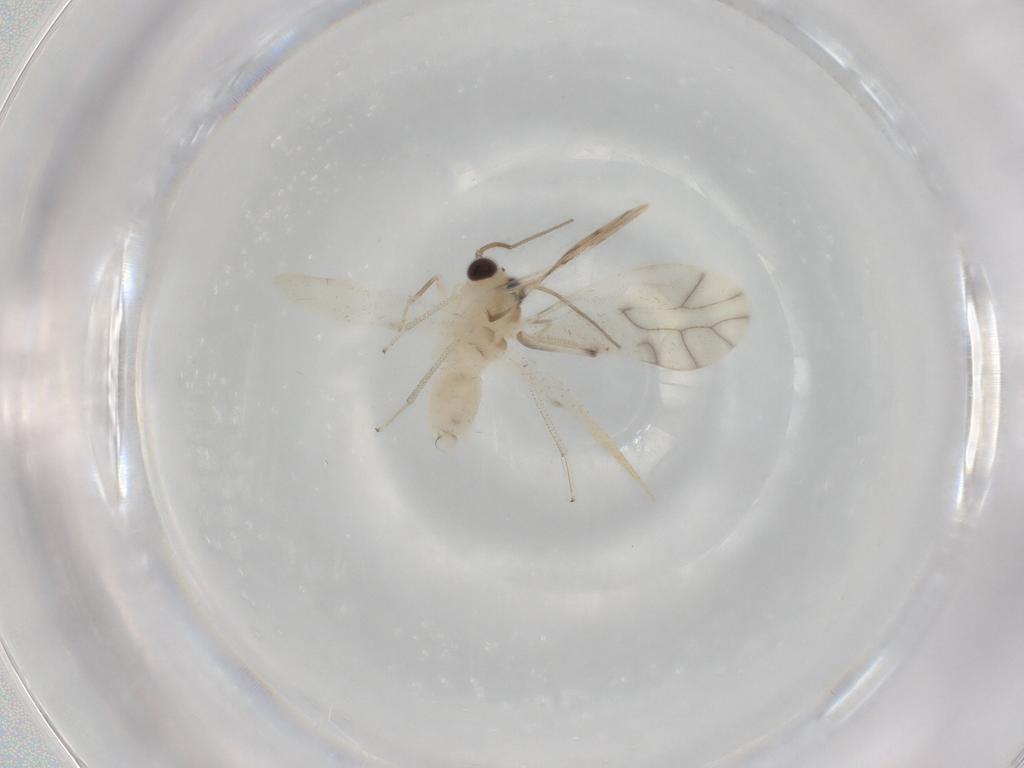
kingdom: Animalia
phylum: Arthropoda
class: Insecta
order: Psocodea
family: Caeciliusidae
